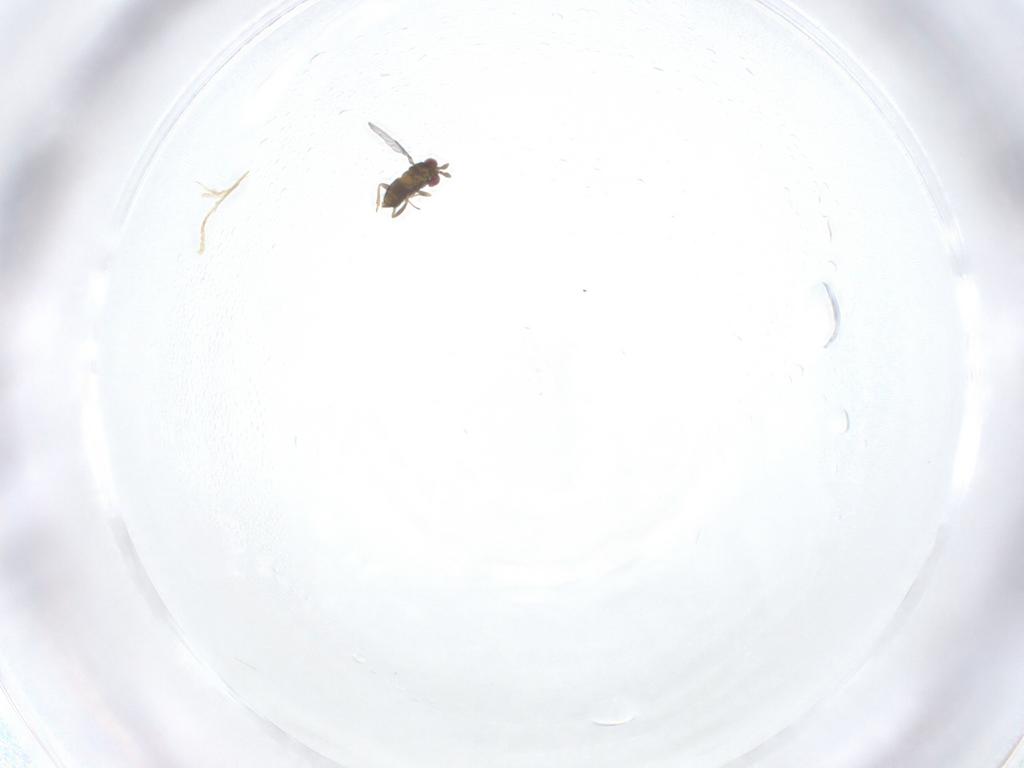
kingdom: Animalia
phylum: Arthropoda
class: Insecta
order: Hymenoptera
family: Trichogrammatidae
